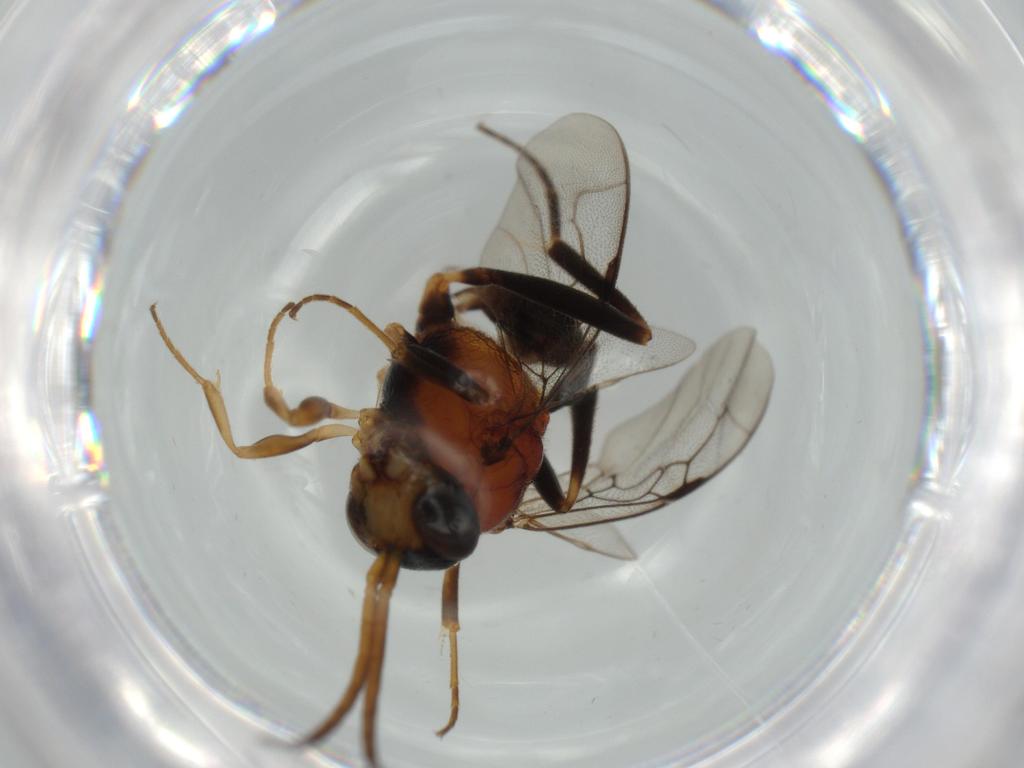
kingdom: Animalia
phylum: Arthropoda
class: Insecta
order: Hymenoptera
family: Evaniidae
